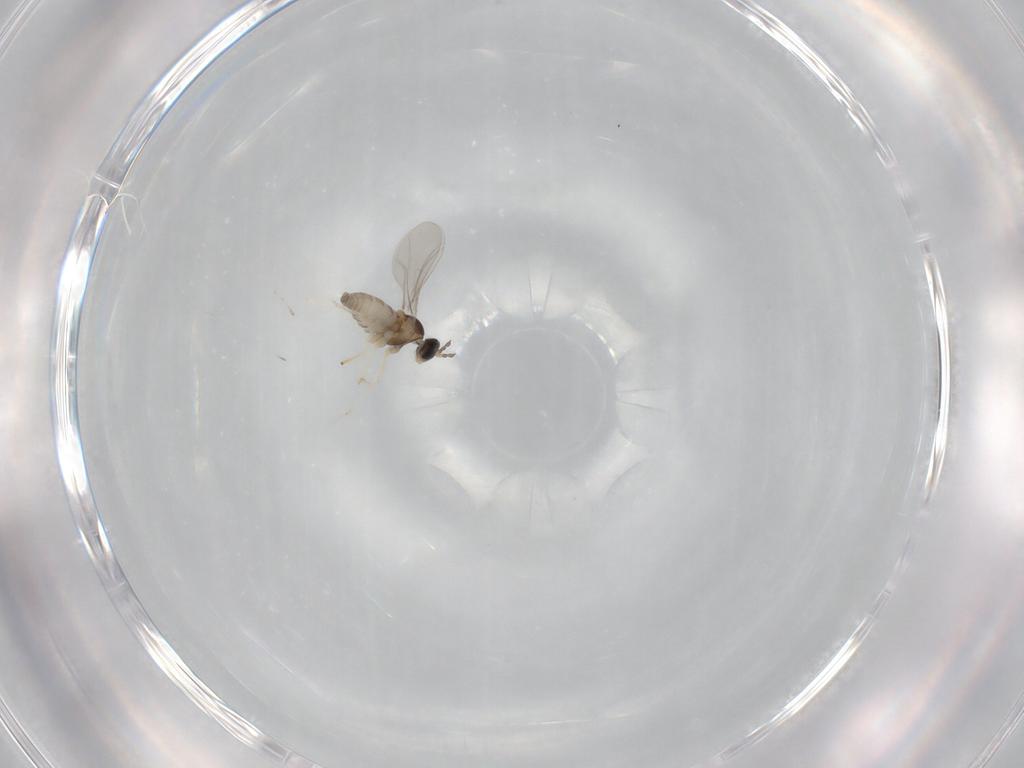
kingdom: Animalia
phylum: Arthropoda
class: Insecta
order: Diptera
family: Cecidomyiidae
